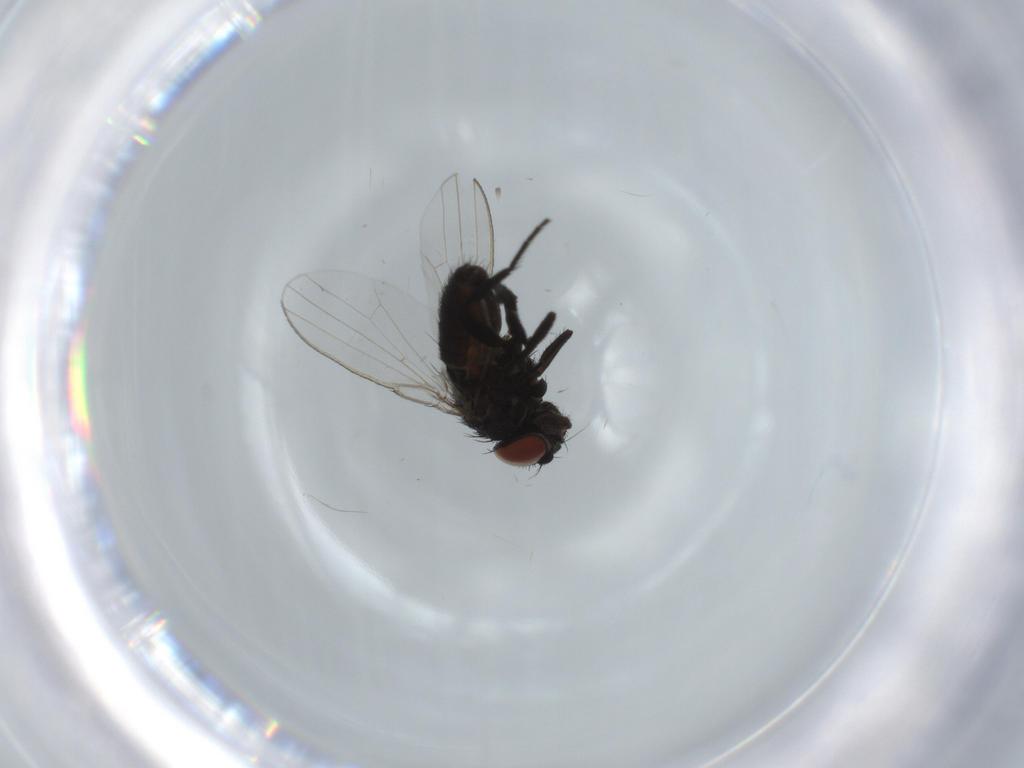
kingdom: Animalia
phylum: Arthropoda
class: Insecta
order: Diptera
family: Milichiidae
